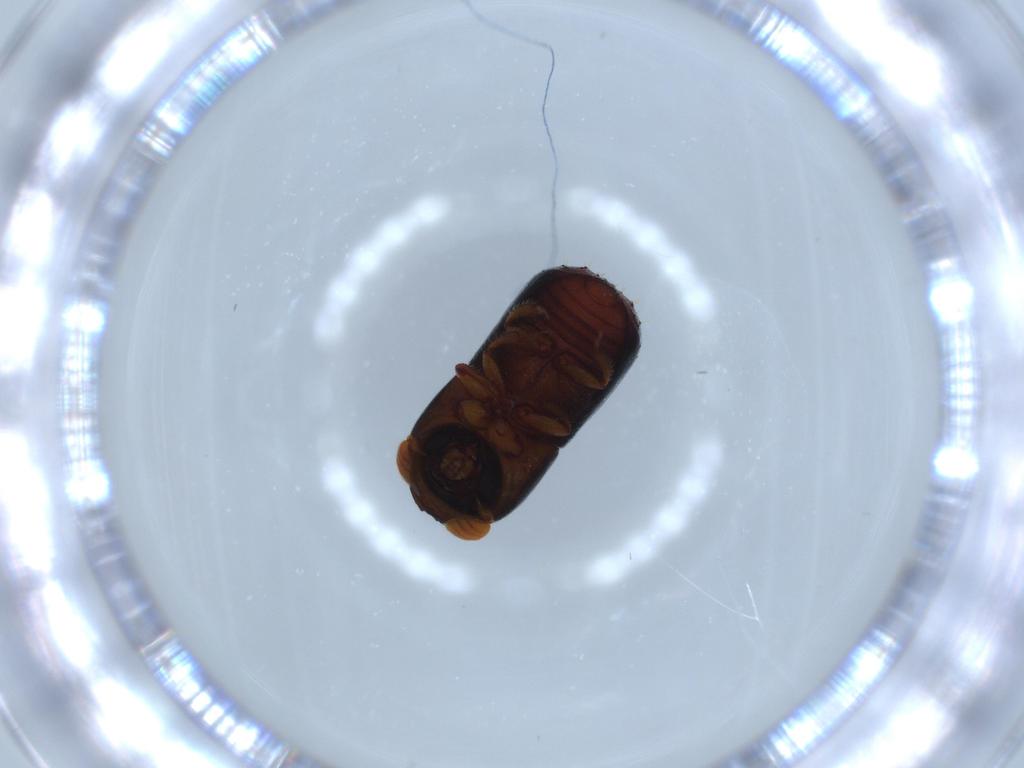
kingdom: Animalia
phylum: Arthropoda
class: Insecta
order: Coleoptera
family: Curculionidae
